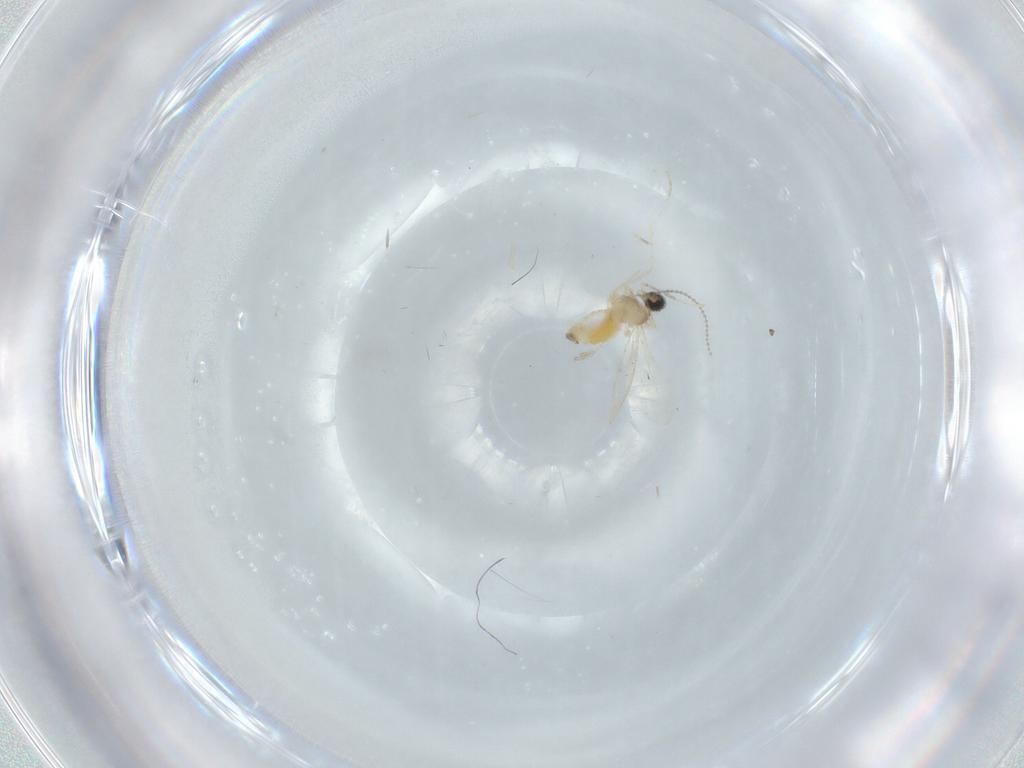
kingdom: Animalia
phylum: Arthropoda
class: Insecta
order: Diptera
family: Cecidomyiidae
